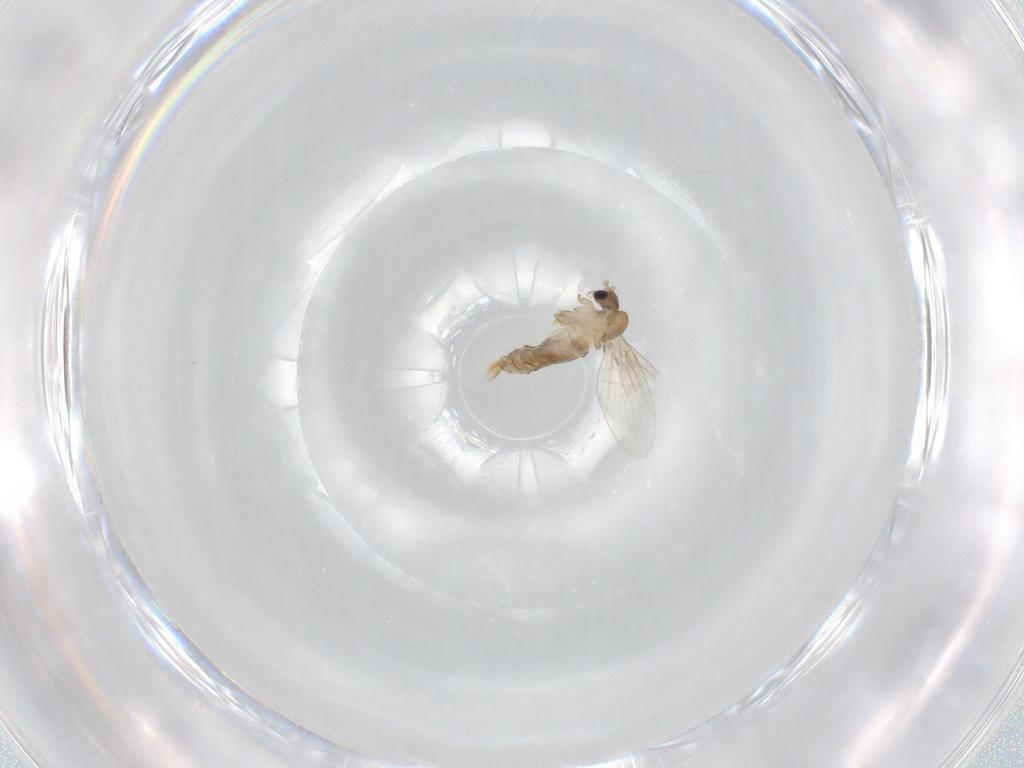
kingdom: Animalia
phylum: Arthropoda
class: Insecta
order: Diptera
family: Psychodidae
